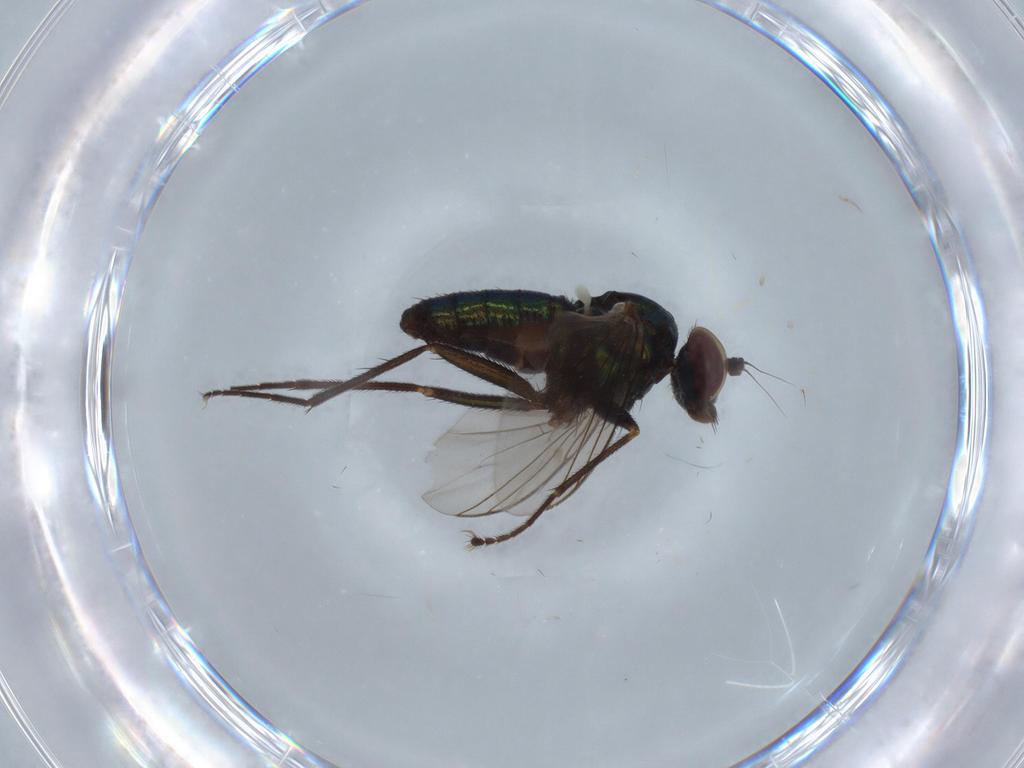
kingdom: Animalia
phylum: Arthropoda
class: Insecta
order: Diptera
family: Dolichopodidae
